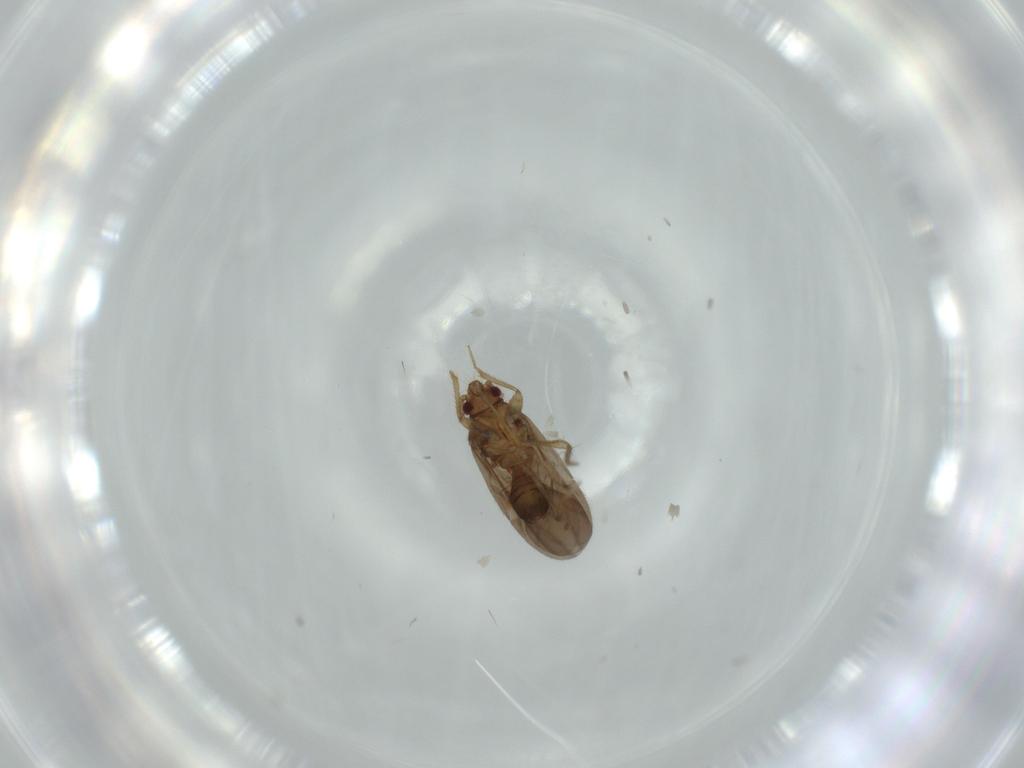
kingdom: Animalia
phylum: Arthropoda
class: Insecta
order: Hemiptera
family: Ceratocombidae
